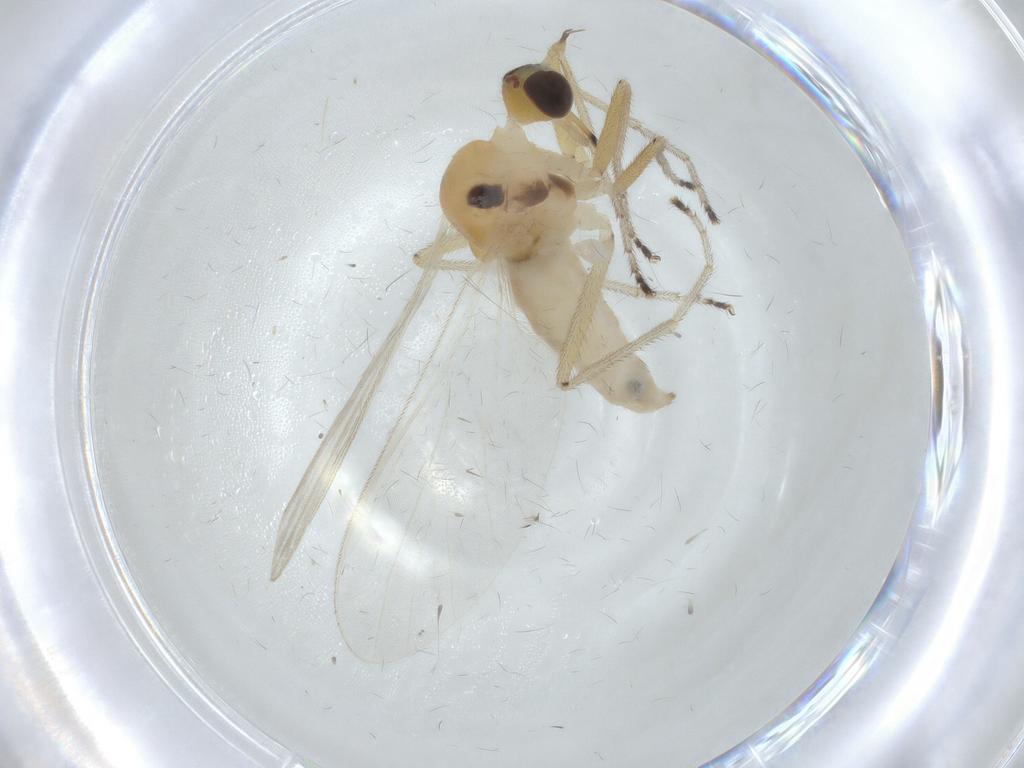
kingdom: Animalia
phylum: Arthropoda
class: Insecta
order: Diptera
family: Empididae
